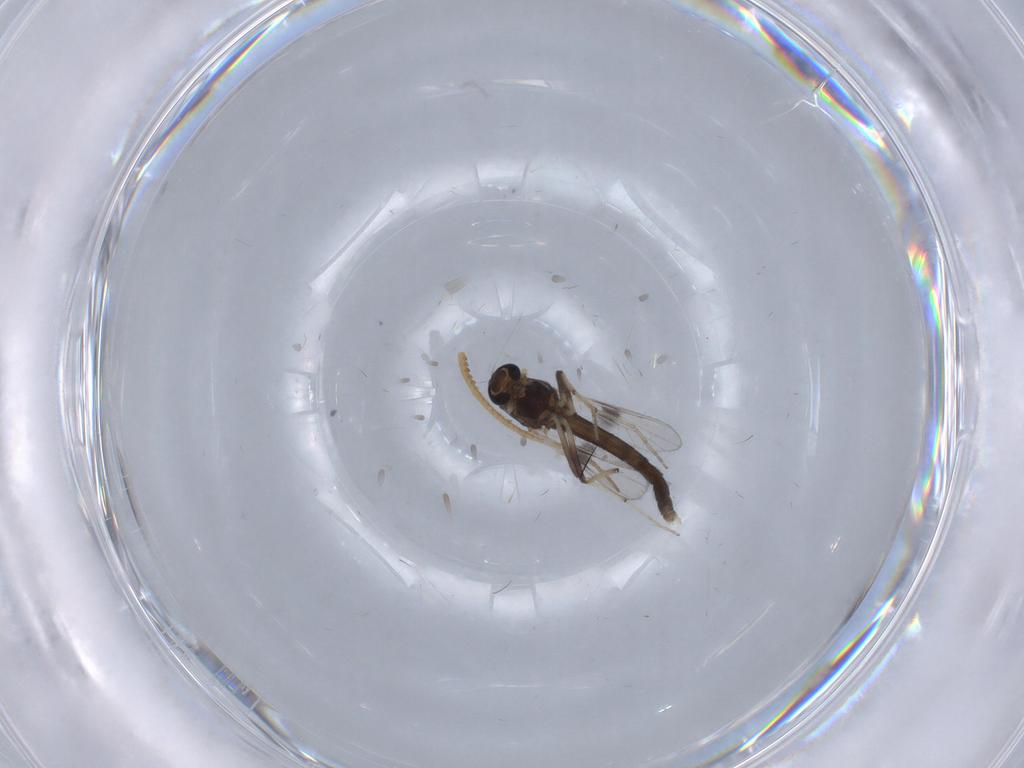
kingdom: Animalia
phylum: Arthropoda
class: Insecta
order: Diptera
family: Chironomidae
